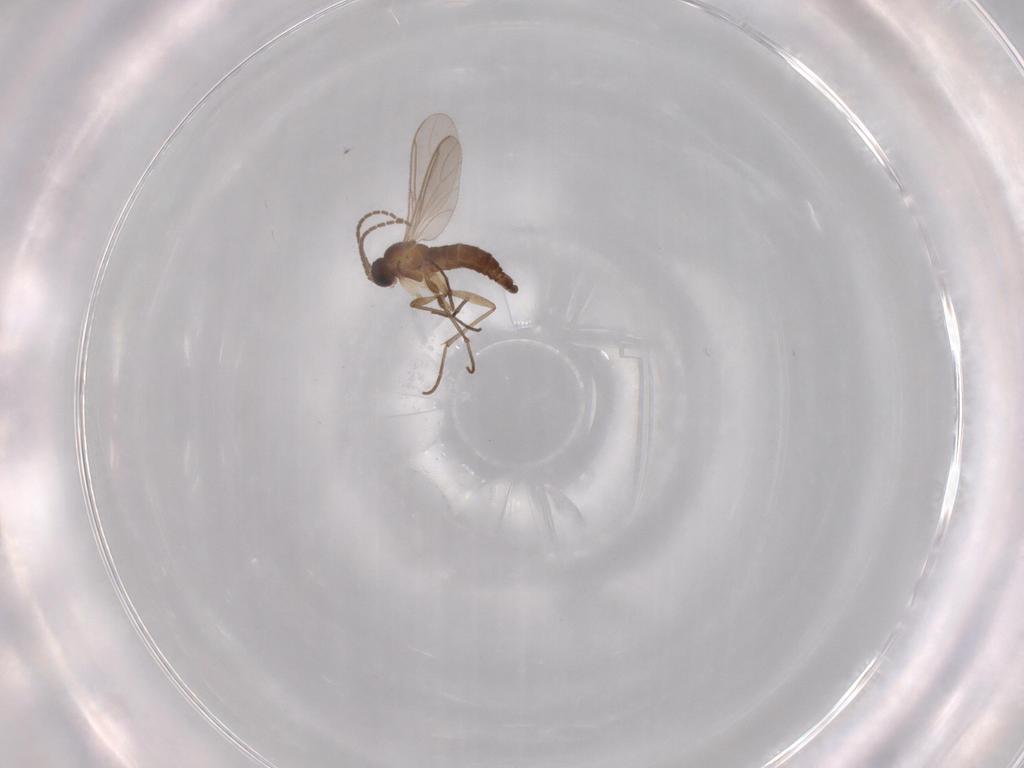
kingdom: Animalia
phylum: Arthropoda
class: Insecta
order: Diptera
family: Sciaridae
